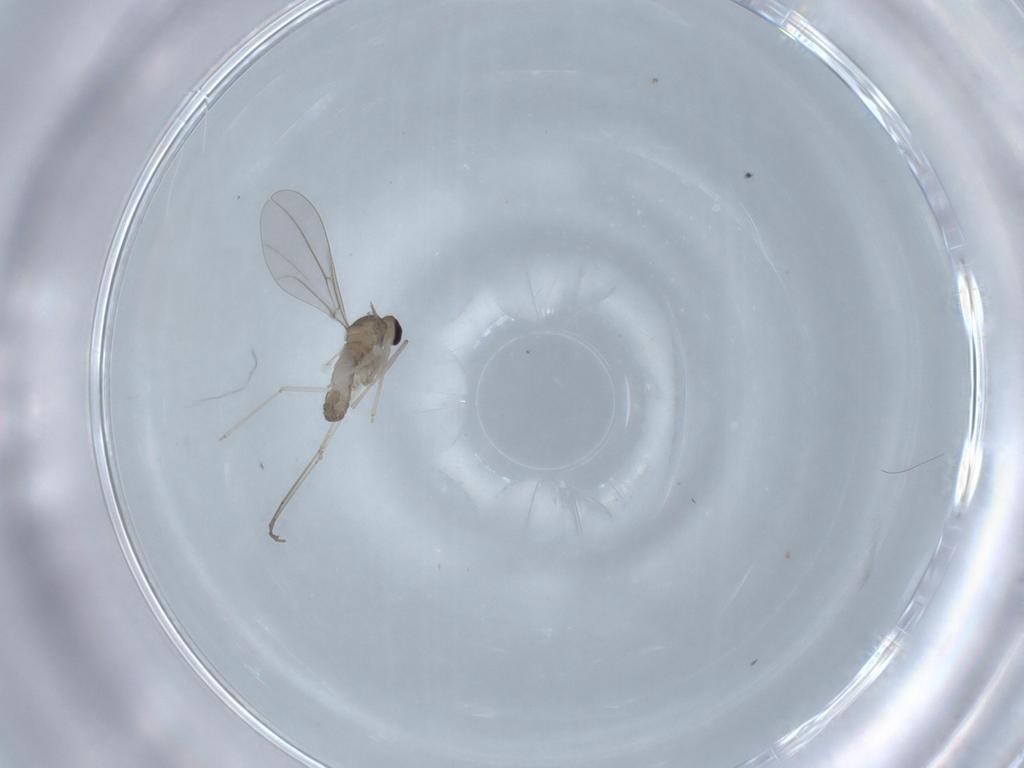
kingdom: Animalia
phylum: Arthropoda
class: Insecta
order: Diptera
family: Cecidomyiidae
